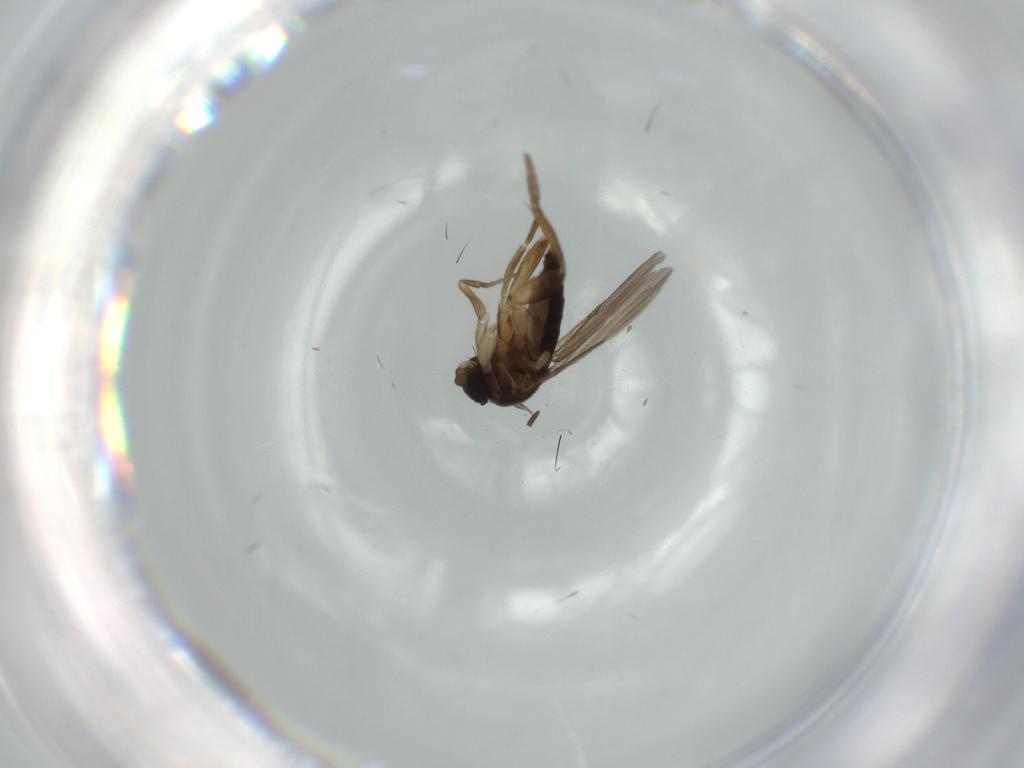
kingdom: Animalia
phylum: Arthropoda
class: Insecta
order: Diptera
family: Phoridae
